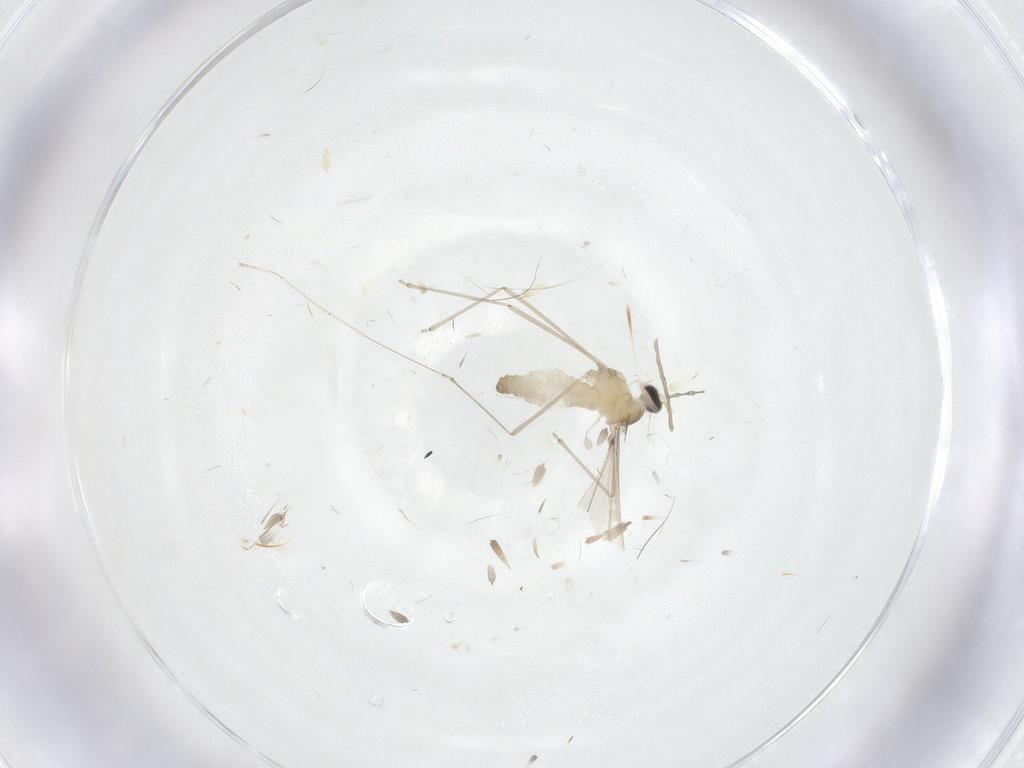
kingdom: Animalia
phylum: Arthropoda
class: Insecta
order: Diptera
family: Cecidomyiidae
